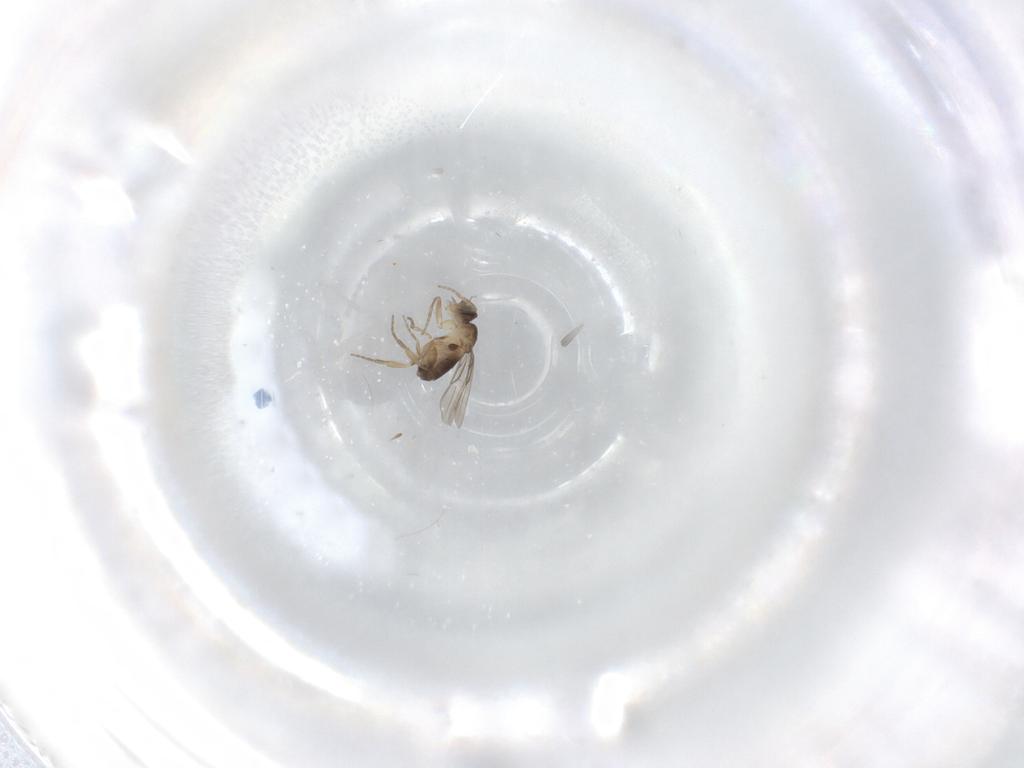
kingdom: Animalia
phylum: Arthropoda
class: Insecta
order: Diptera
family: Phoridae
